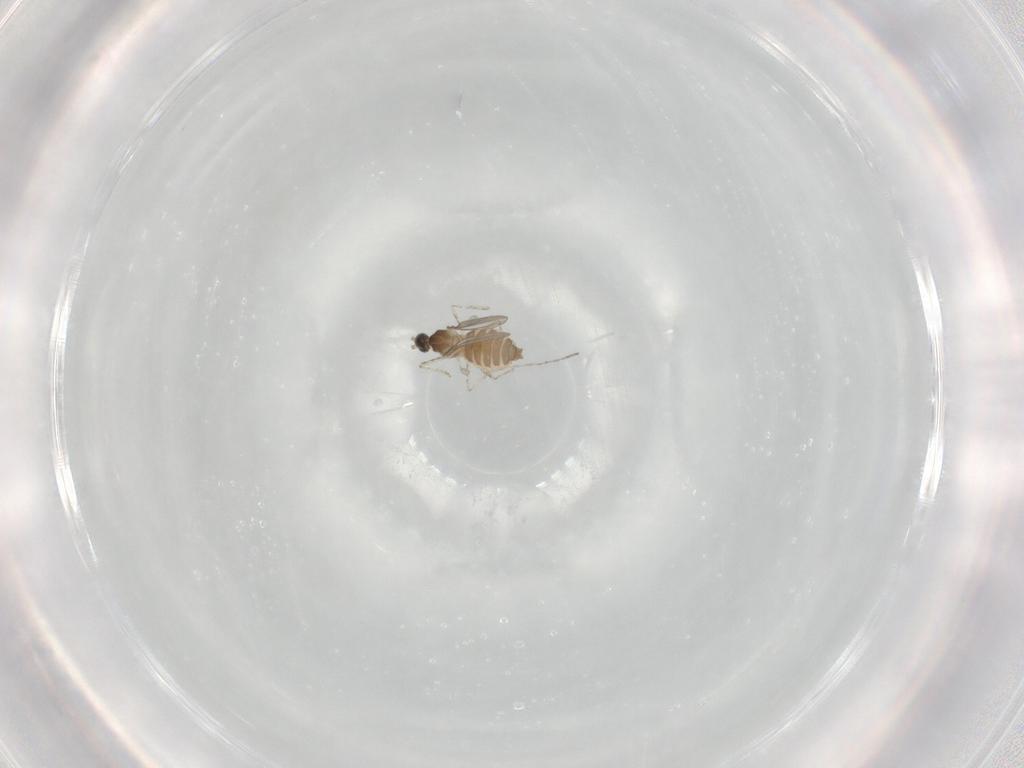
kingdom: Animalia
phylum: Arthropoda
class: Insecta
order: Diptera
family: Cecidomyiidae
